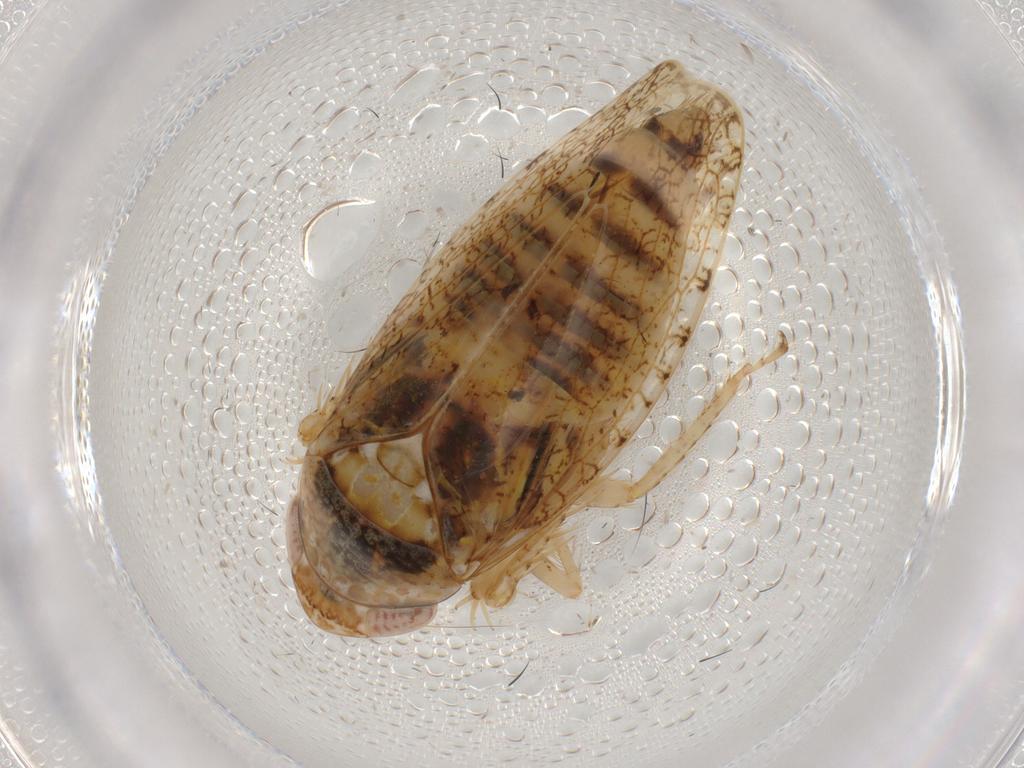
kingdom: Animalia
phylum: Arthropoda
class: Insecta
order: Hemiptera
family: Cicadellidae
